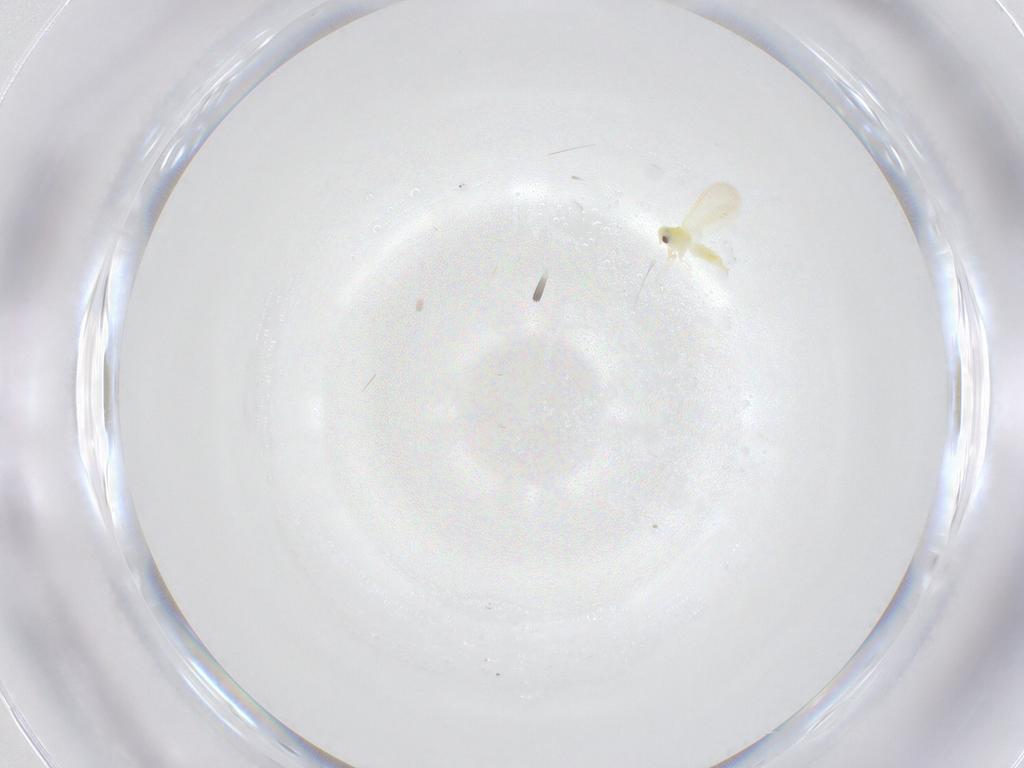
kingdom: Animalia
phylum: Arthropoda
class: Insecta
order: Hemiptera
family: Aleyrodidae
